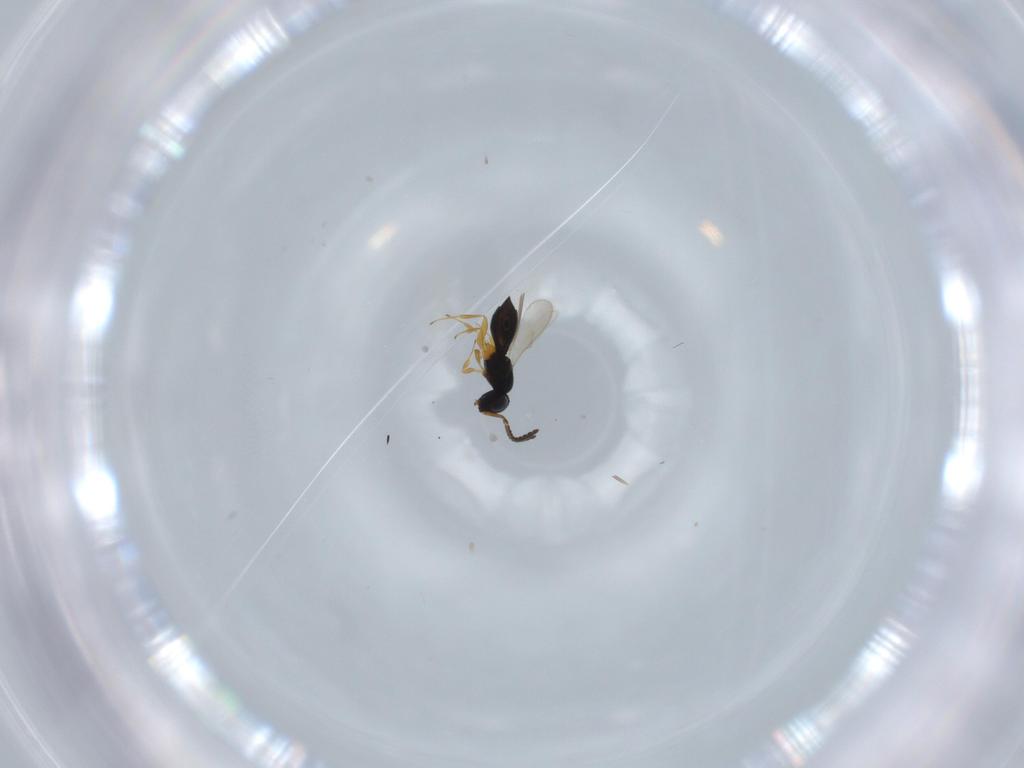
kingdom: Animalia
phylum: Arthropoda
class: Insecta
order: Hymenoptera
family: Scelionidae
